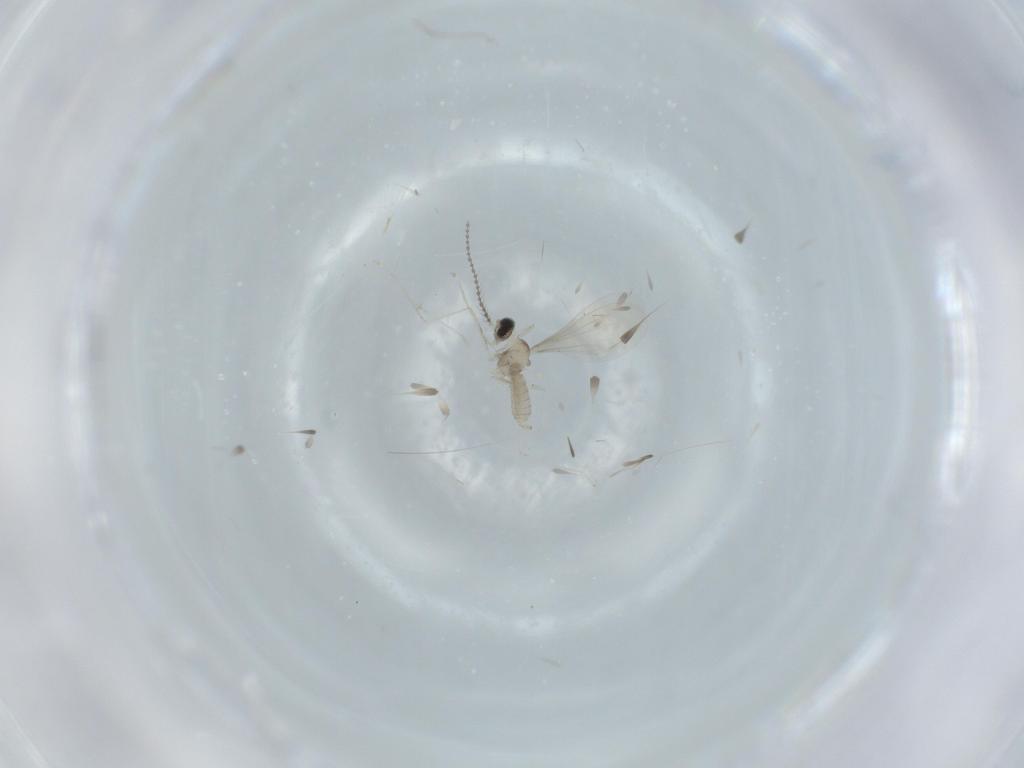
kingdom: Animalia
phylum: Arthropoda
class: Insecta
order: Diptera
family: Cecidomyiidae
